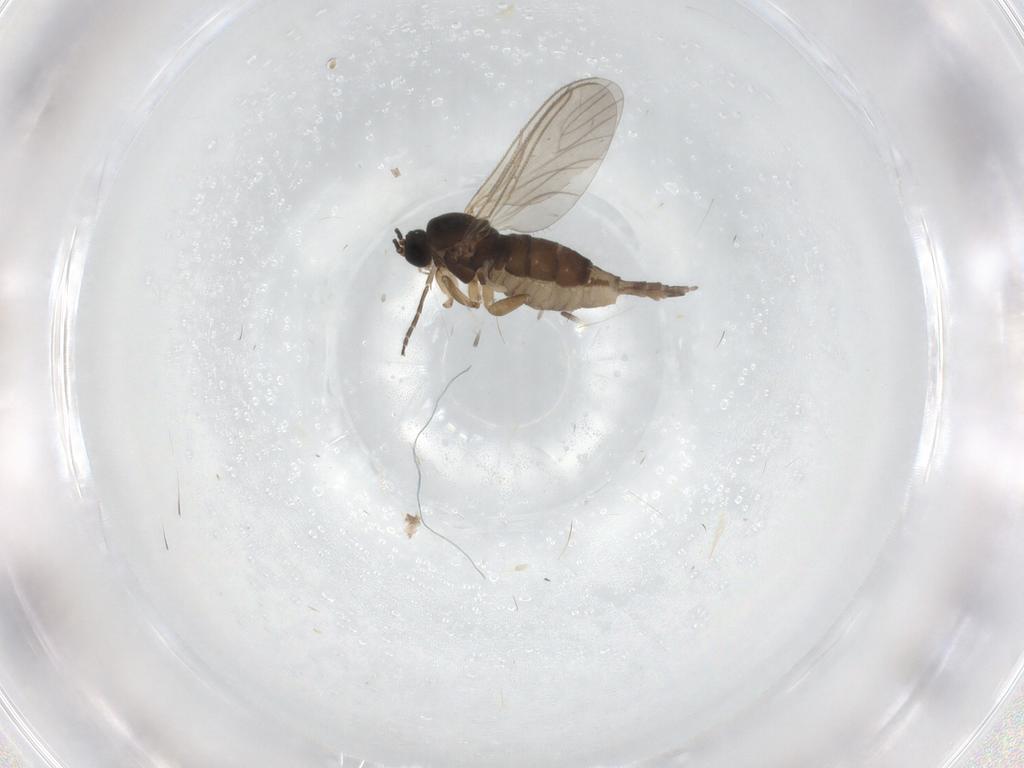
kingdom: Animalia
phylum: Arthropoda
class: Insecta
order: Diptera
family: Sciaridae
